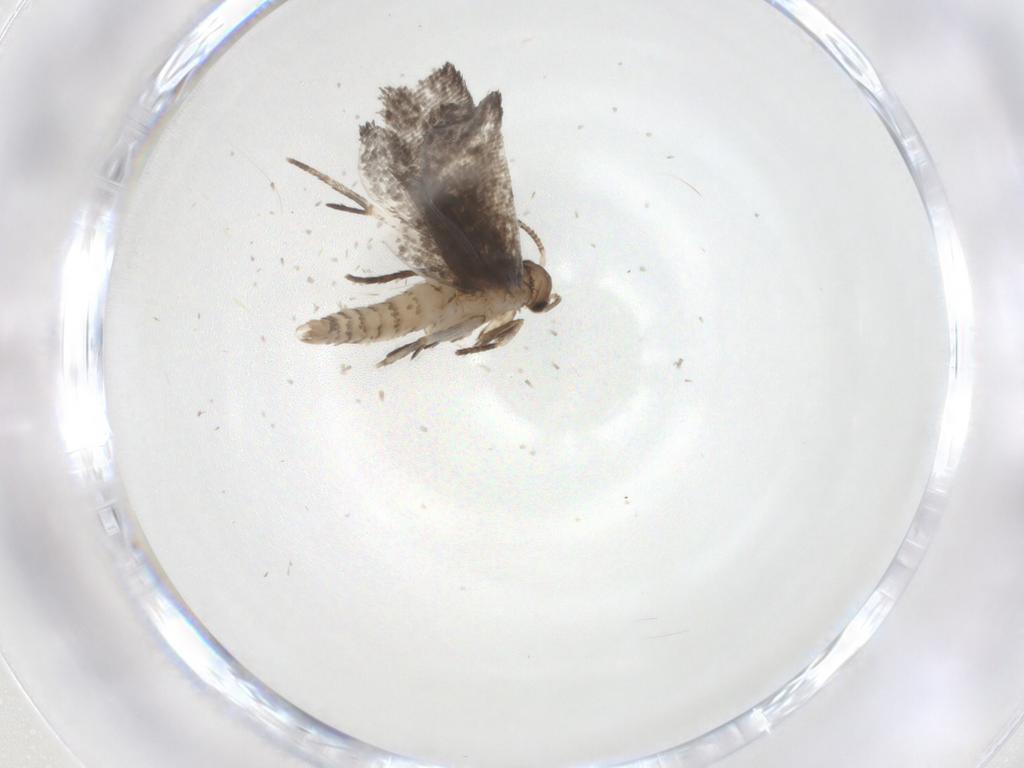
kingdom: Animalia
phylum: Arthropoda
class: Insecta
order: Lepidoptera
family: Crambidae
